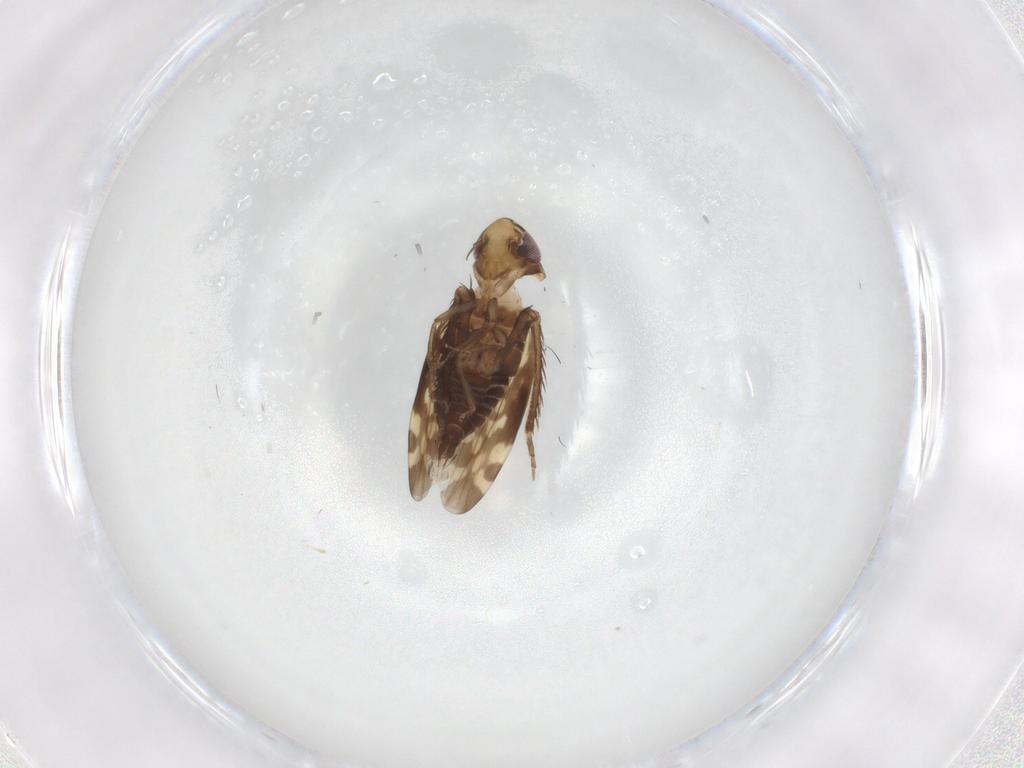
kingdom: Animalia
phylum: Arthropoda
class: Insecta
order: Hemiptera
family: Cicadellidae
